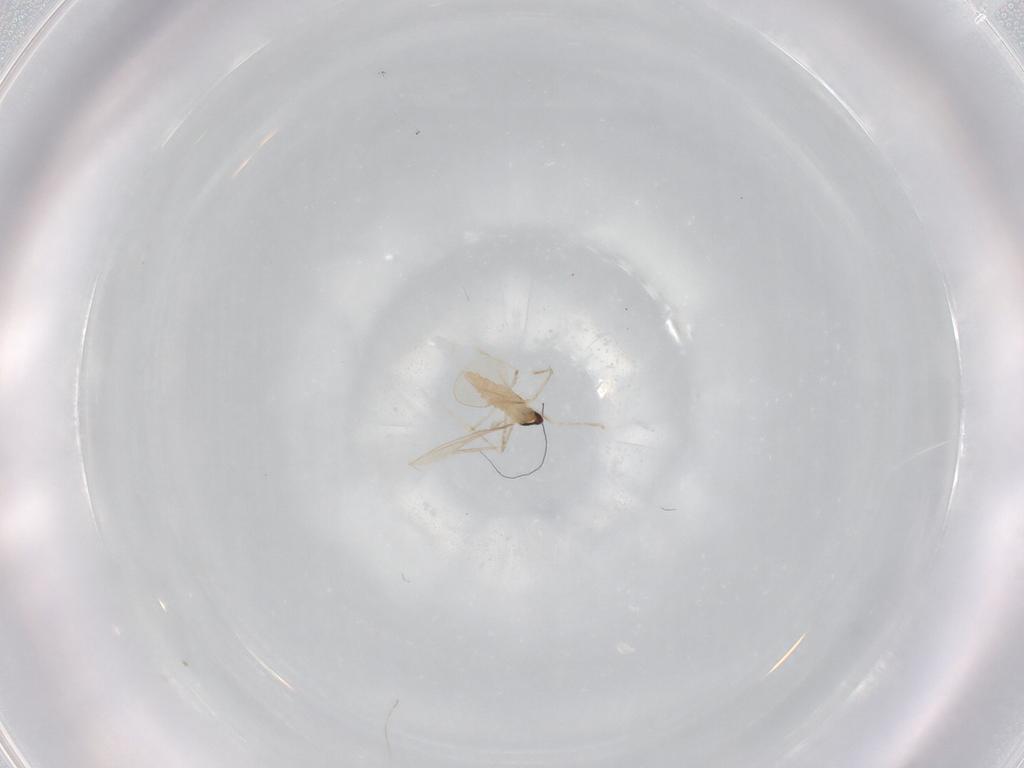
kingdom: Animalia
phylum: Arthropoda
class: Insecta
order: Diptera
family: Cecidomyiidae
